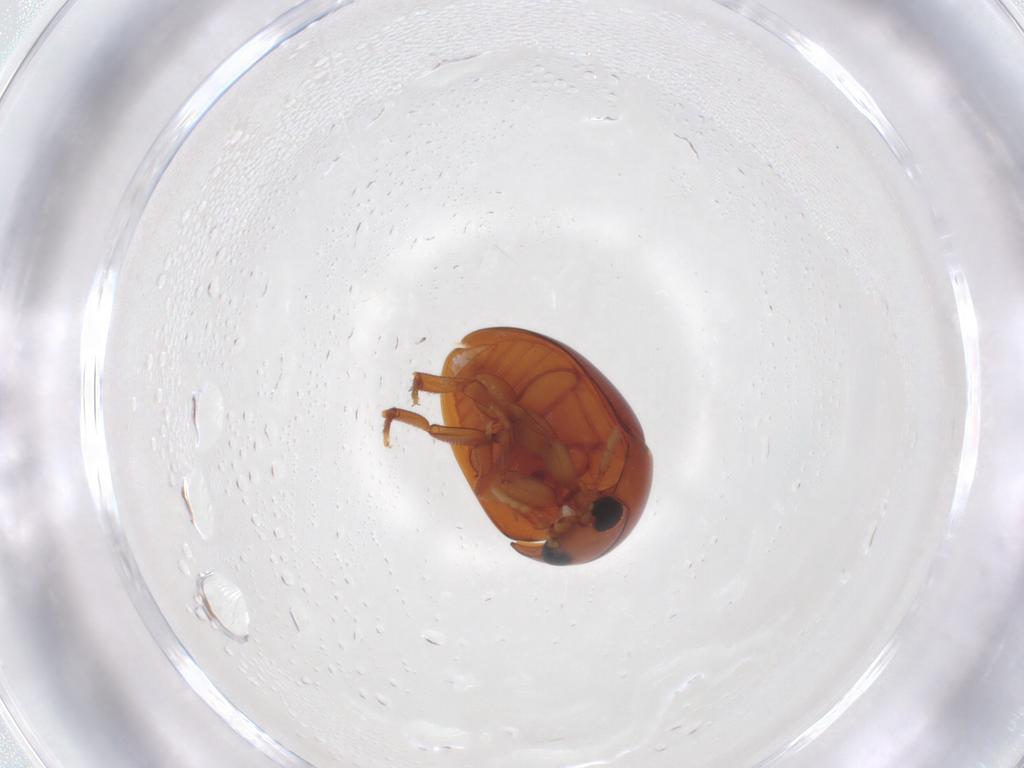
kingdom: Animalia
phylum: Arthropoda
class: Insecta
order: Coleoptera
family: Phalacridae
